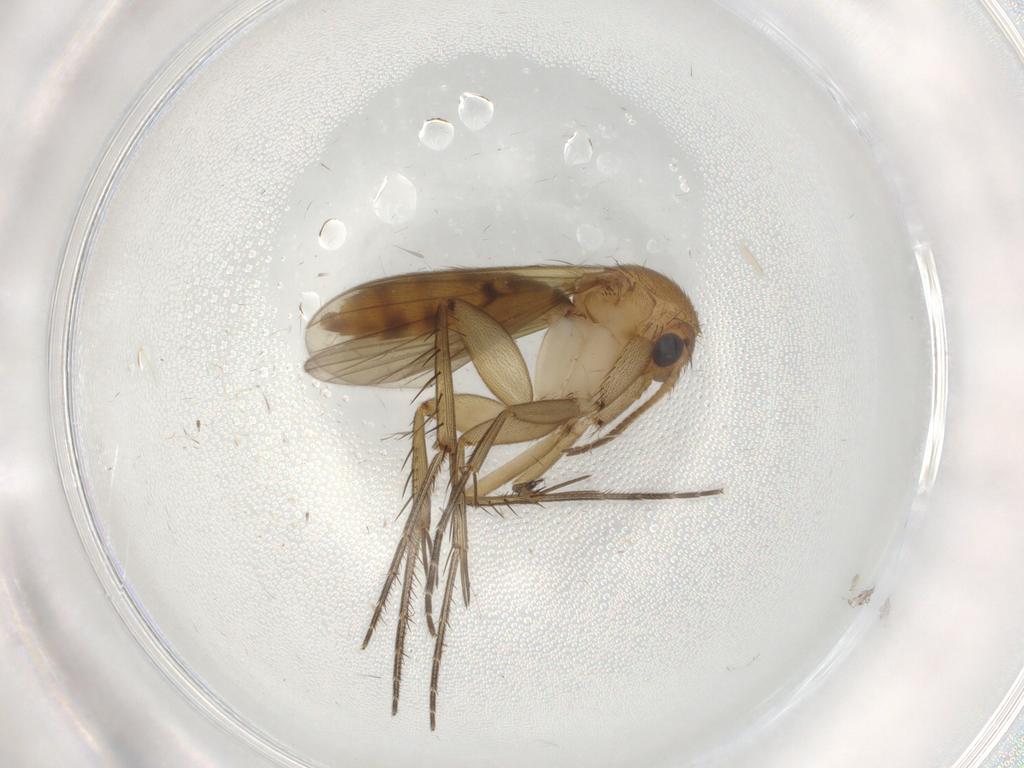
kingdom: Animalia
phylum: Arthropoda
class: Insecta
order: Diptera
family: Mycetophilidae
